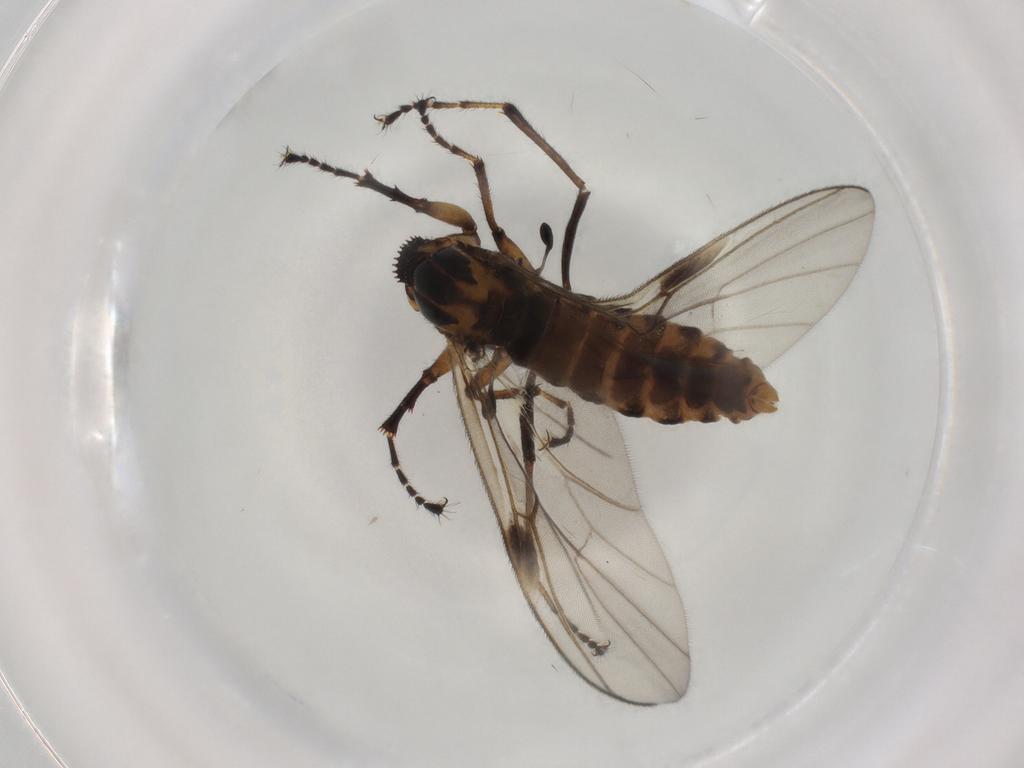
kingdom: Animalia
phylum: Arthropoda
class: Insecta
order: Diptera
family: Bibionidae
